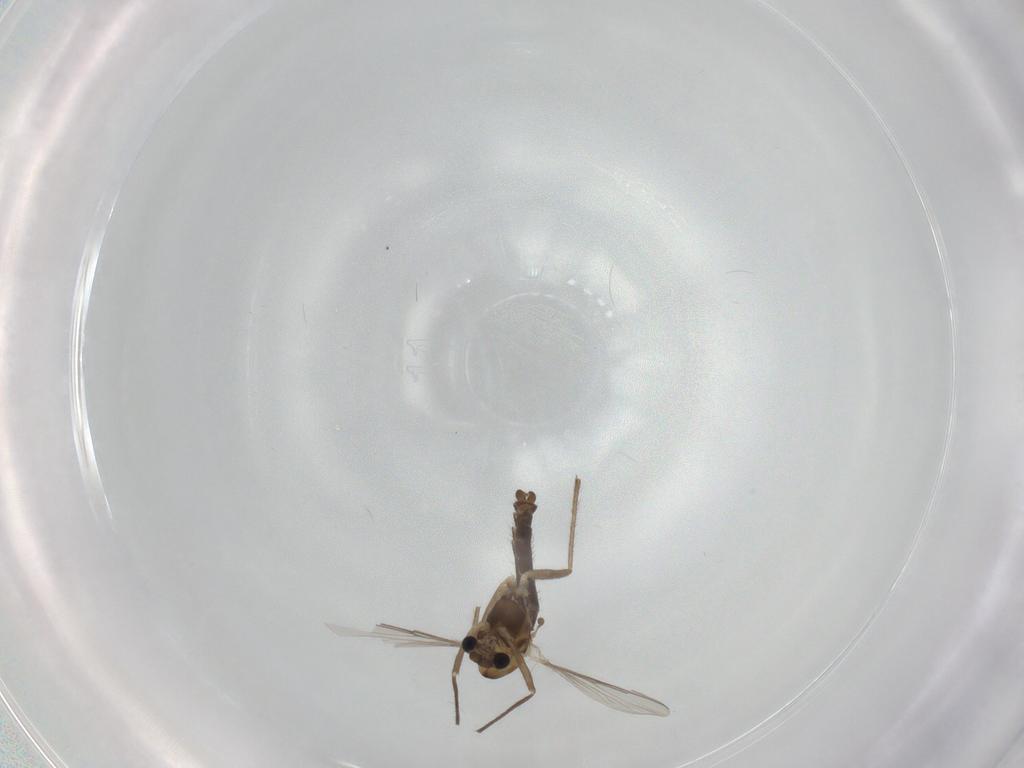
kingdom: Animalia
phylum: Arthropoda
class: Insecta
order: Diptera
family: Chironomidae
